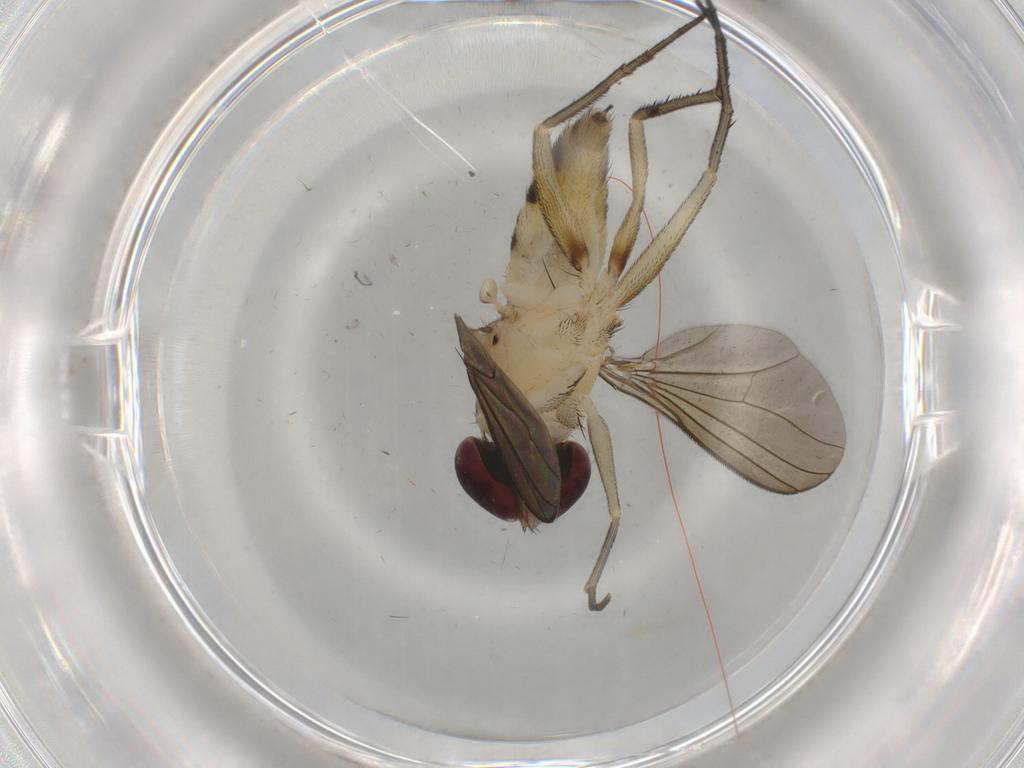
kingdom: Animalia
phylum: Arthropoda
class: Insecta
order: Diptera
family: Dolichopodidae
